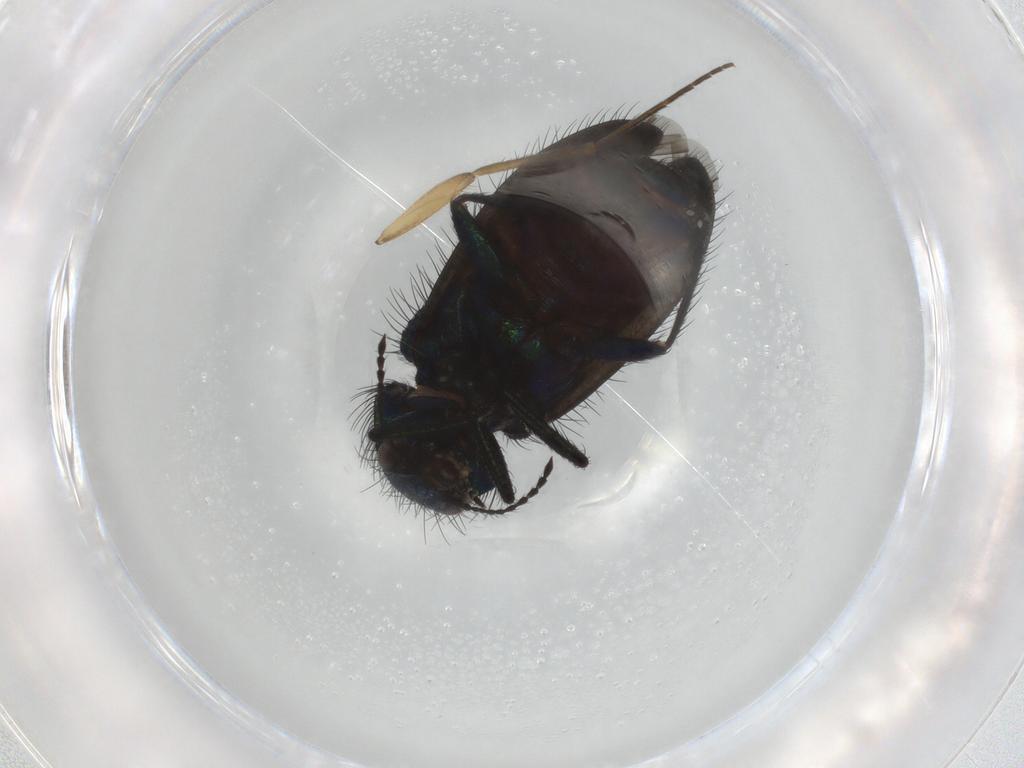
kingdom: Animalia
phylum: Arthropoda
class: Insecta
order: Coleoptera
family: Melyridae
